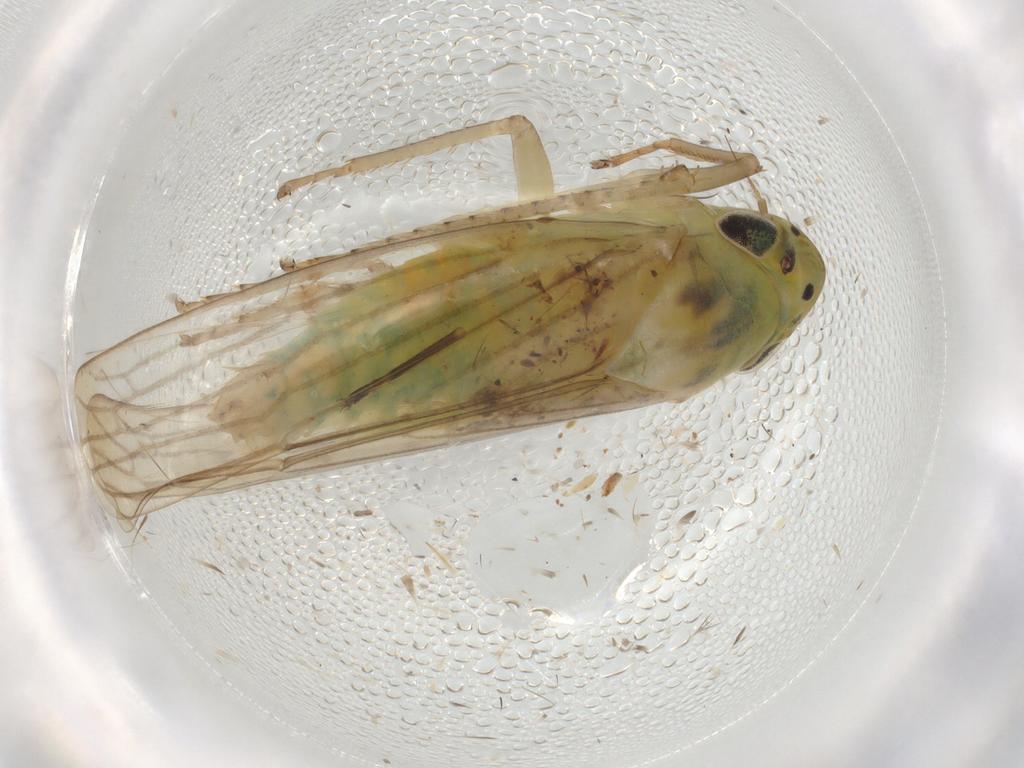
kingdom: Animalia
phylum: Arthropoda
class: Insecta
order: Hemiptera
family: Cicadellidae
